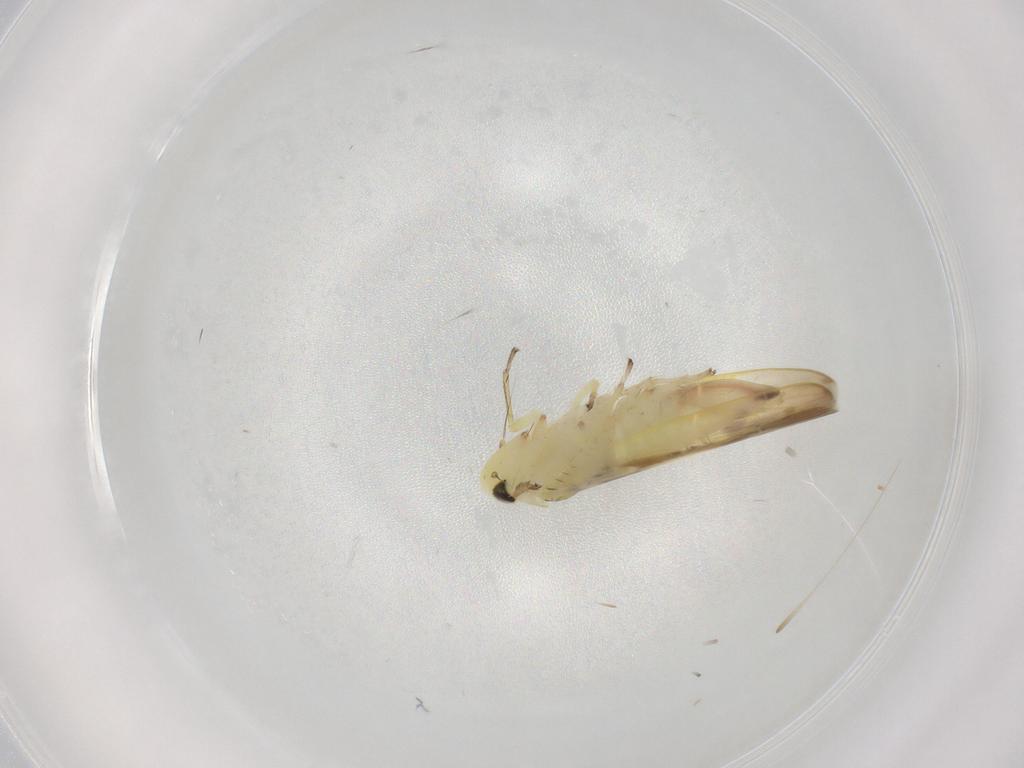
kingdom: Animalia
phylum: Arthropoda
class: Insecta
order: Hemiptera
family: Cicadellidae
